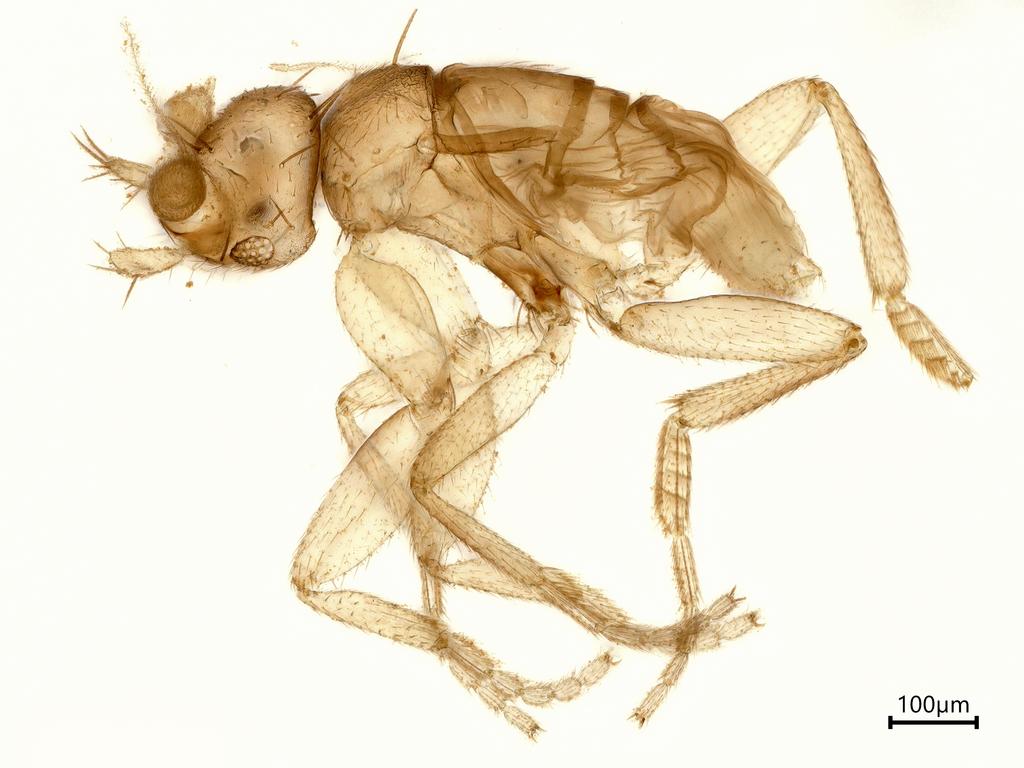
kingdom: Animalia
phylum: Arthropoda
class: Insecta
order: Diptera
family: Phoridae
